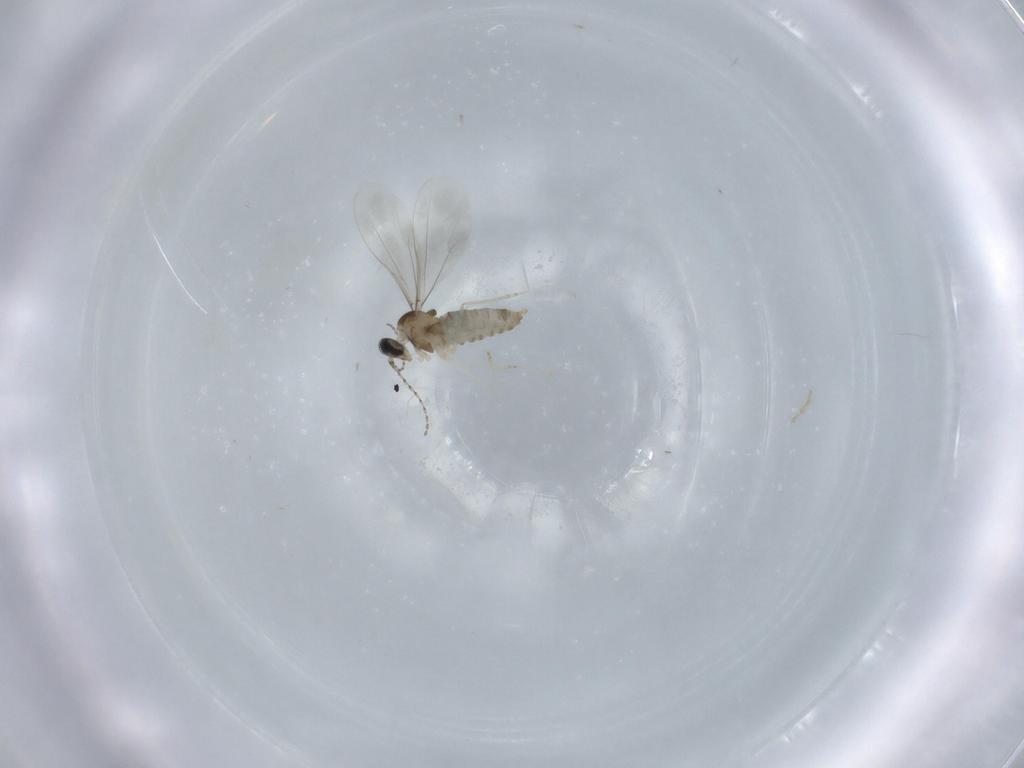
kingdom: Animalia
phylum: Arthropoda
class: Insecta
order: Diptera
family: Cecidomyiidae
